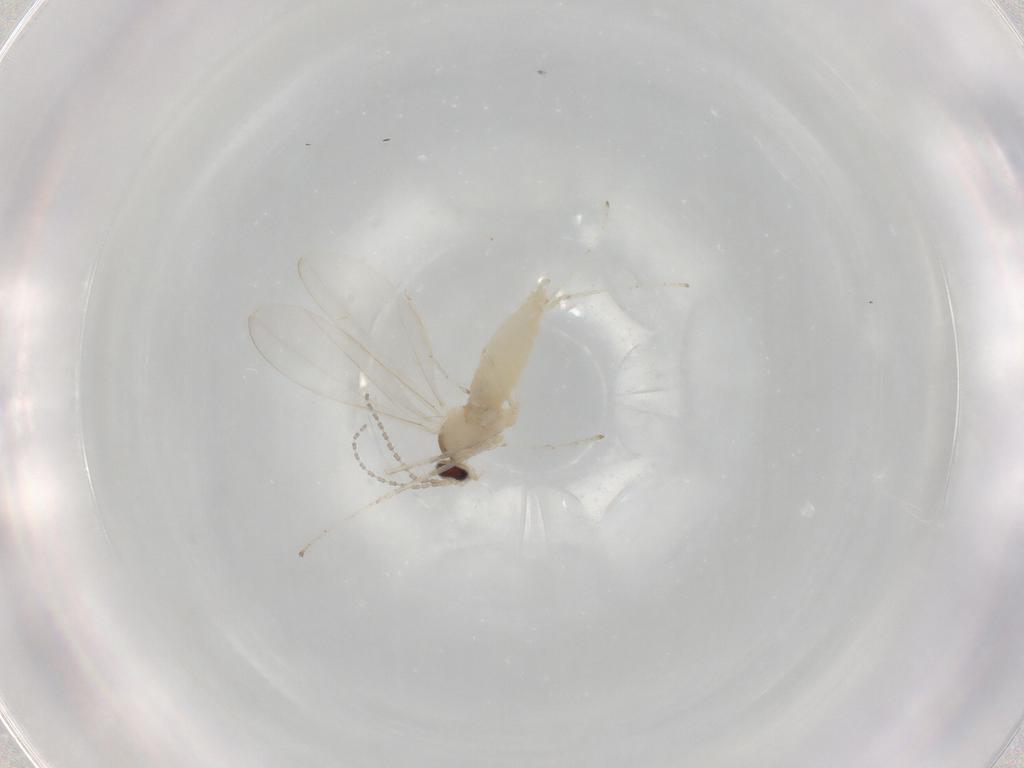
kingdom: Animalia
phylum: Arthropoda
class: Insecta
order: Diptera
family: Cecidomyiidae
